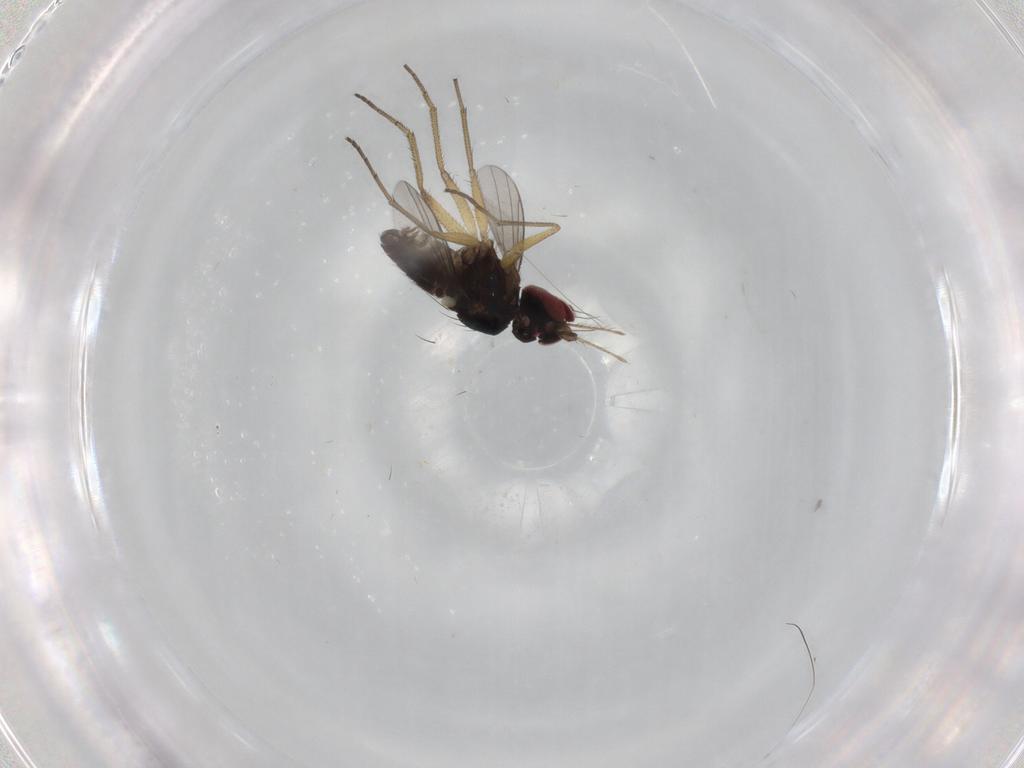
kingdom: Animalia
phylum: Arthropoda
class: Insecta
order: Diptera
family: Dolichopodidae
